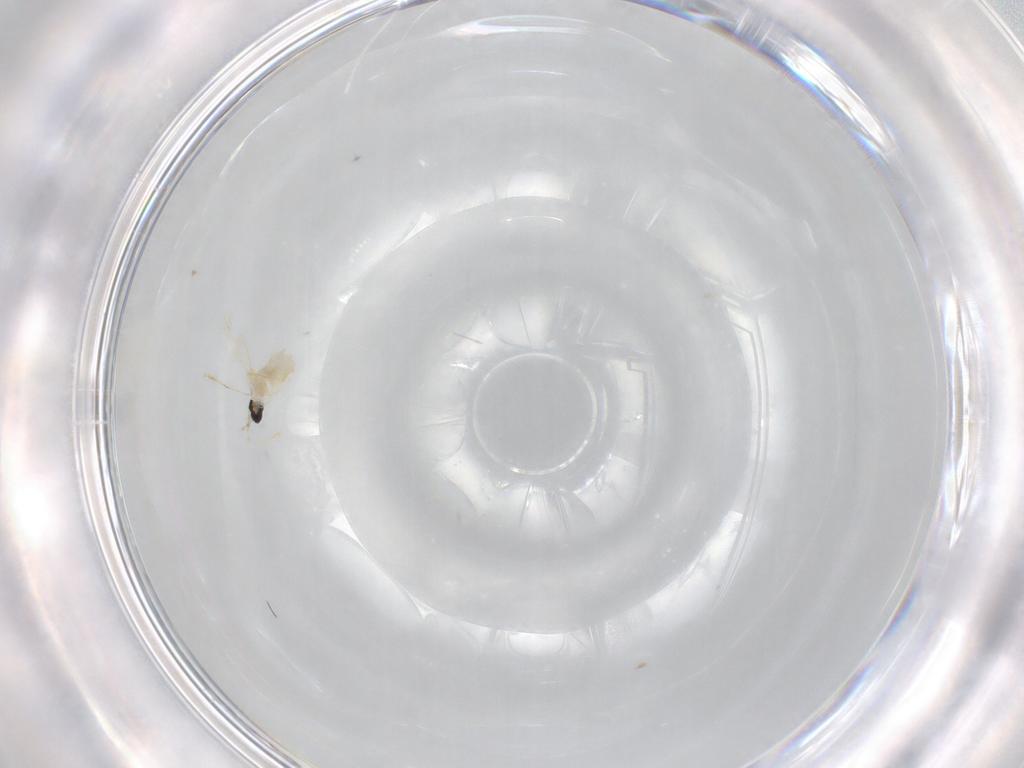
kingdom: Animalia
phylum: Arthropoda
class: Insecta
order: Diptera
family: Cecidomyiidae
